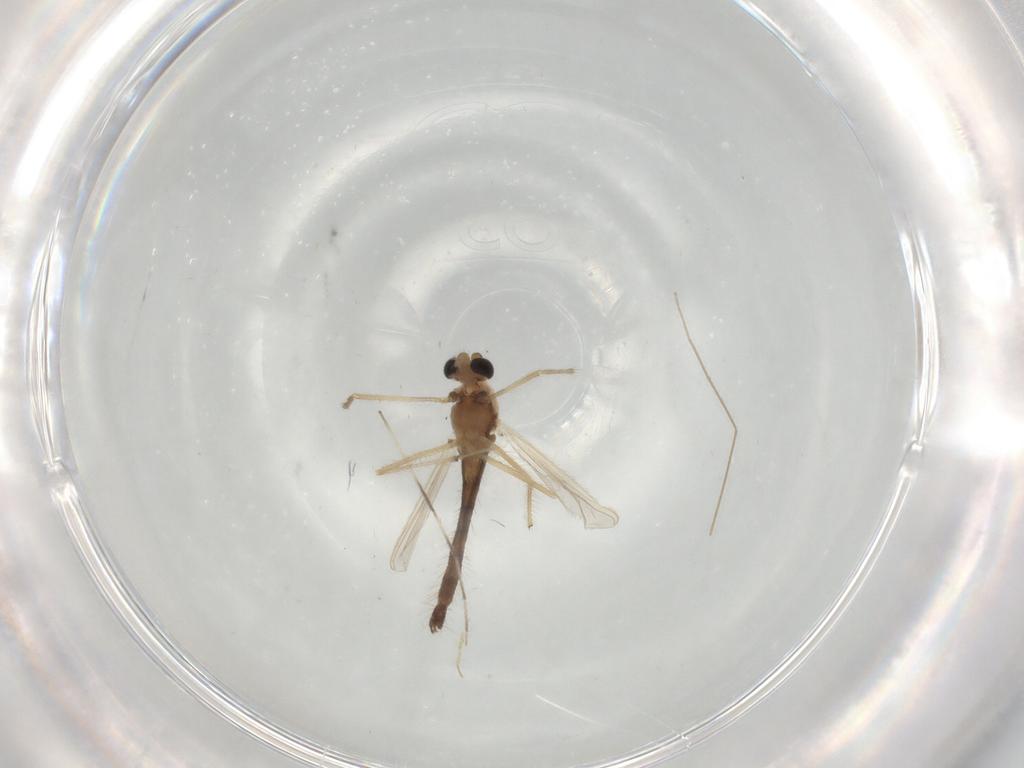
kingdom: Animalia
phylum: Arthropoda
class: Insecta
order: Diptera
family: Chironomidae
